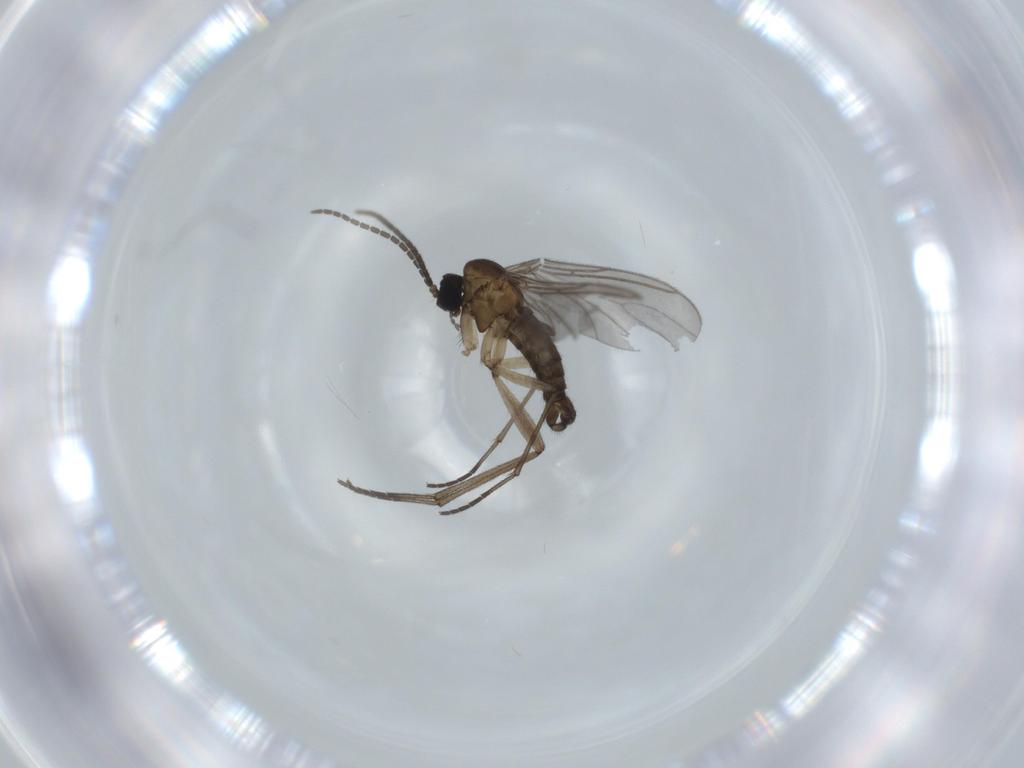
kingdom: Animalia
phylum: Arthropoda
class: Insecta
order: Diptera
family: Sciaridae
